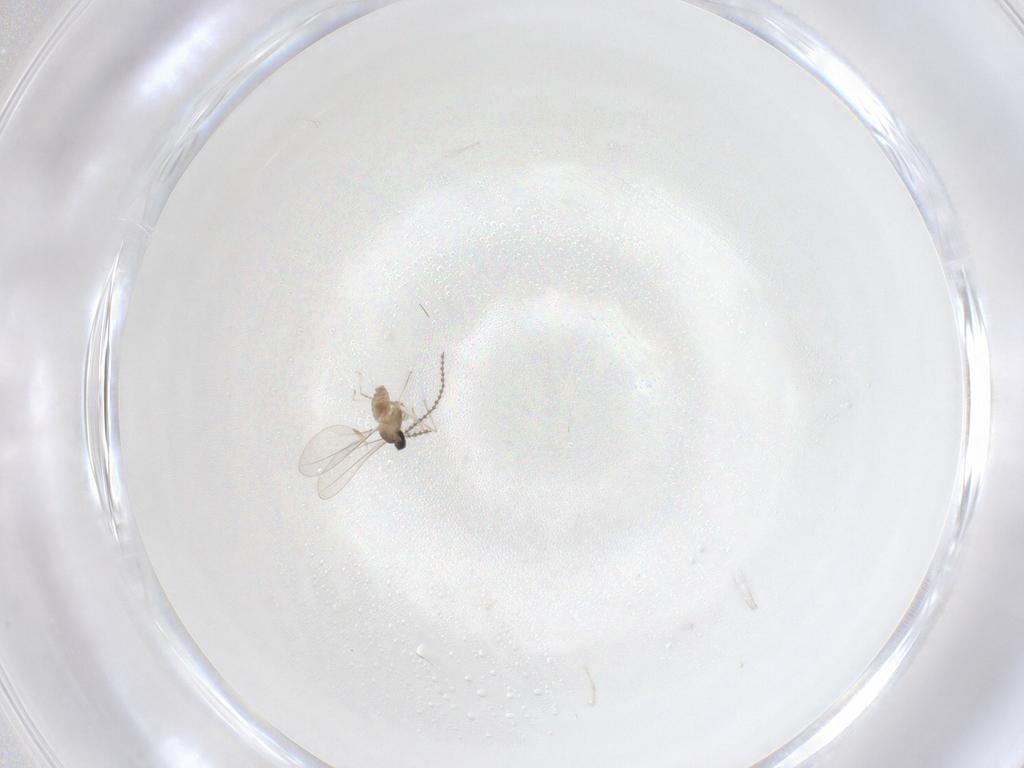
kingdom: Animalia
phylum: Arthropoda
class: Insecta
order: Diptera
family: Cecidomyiidae
